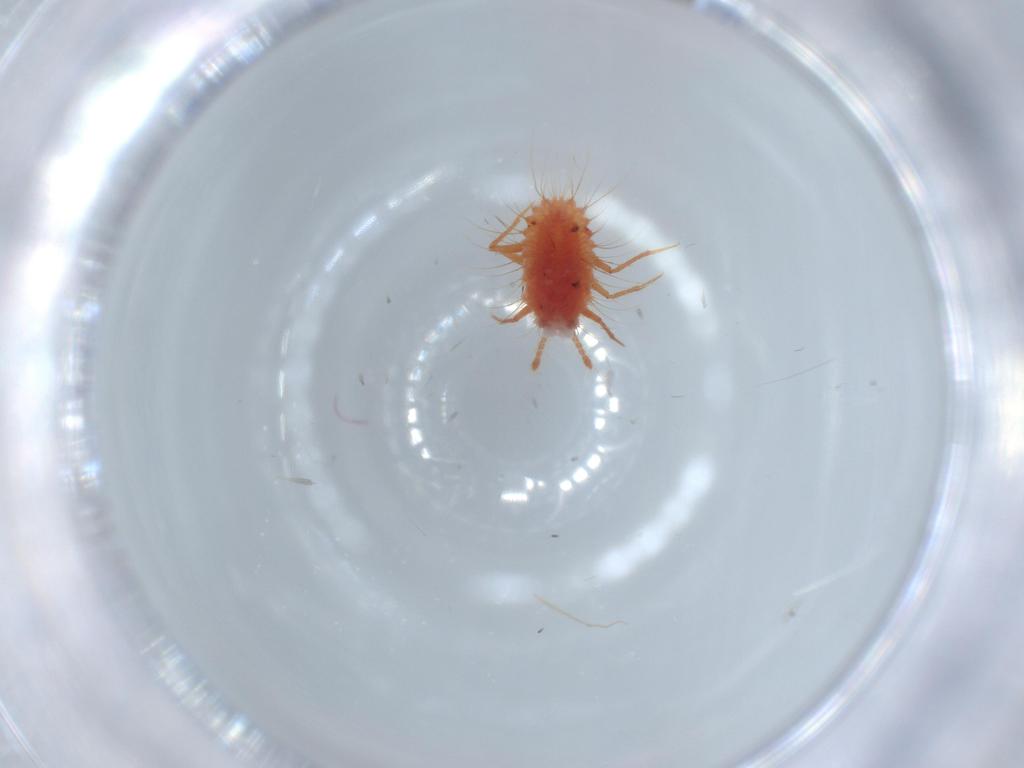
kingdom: Animalia
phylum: Arthropoda
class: Insecta
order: Hemiptera
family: Monophlebidae
